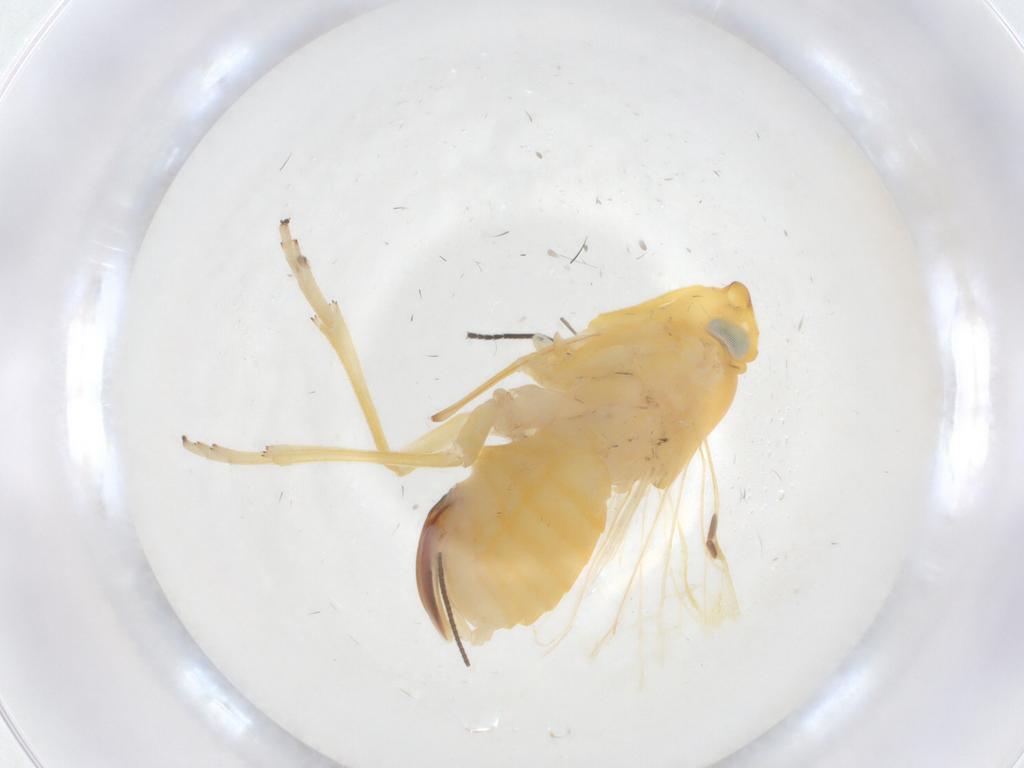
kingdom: Animalia
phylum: Arthropoda
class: Insecta
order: Hemiptera
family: Cixiidae
